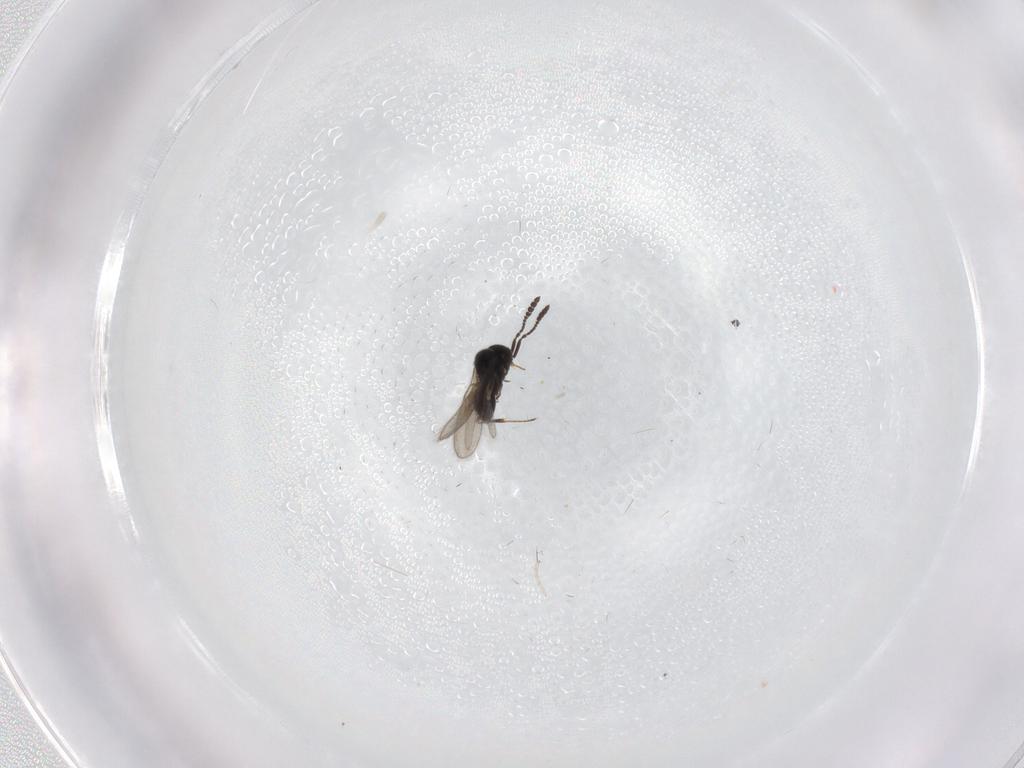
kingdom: Animalia
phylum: Arthropoda
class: Insecta
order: Hymenoptera
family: Scelionidae
